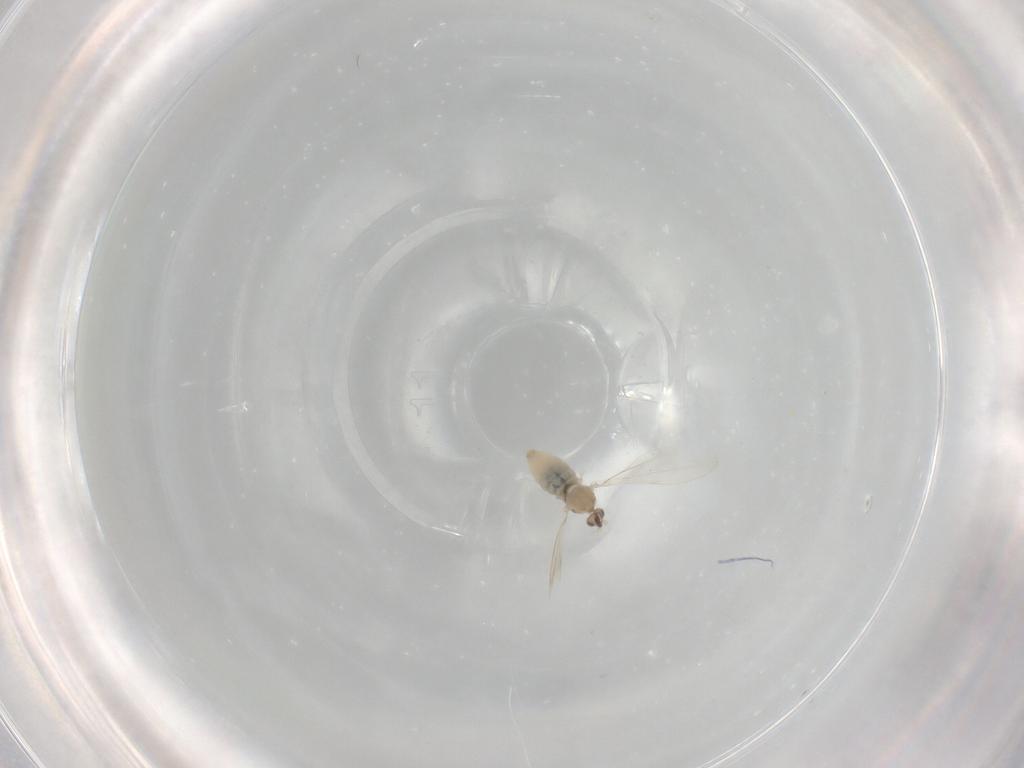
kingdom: Animalia
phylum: Arthropoda
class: Insecta
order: Diptera
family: Cecidomyiidae
